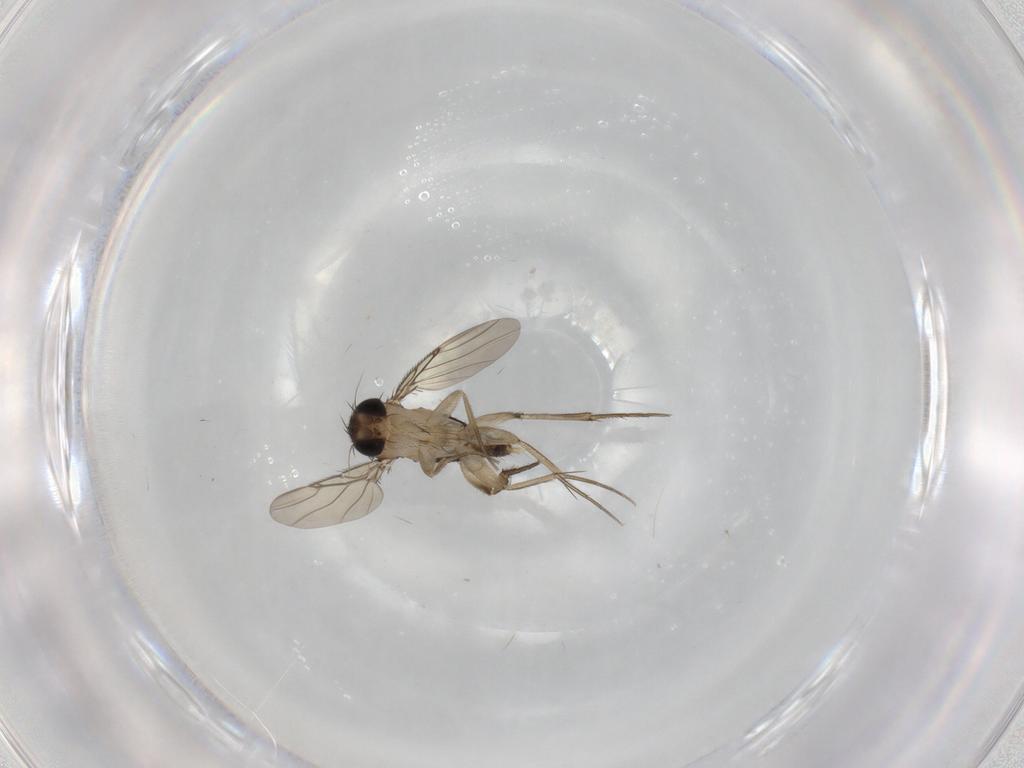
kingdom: Animalia
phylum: Arthropoda
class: Insecta
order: Diptera
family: Phoridae
